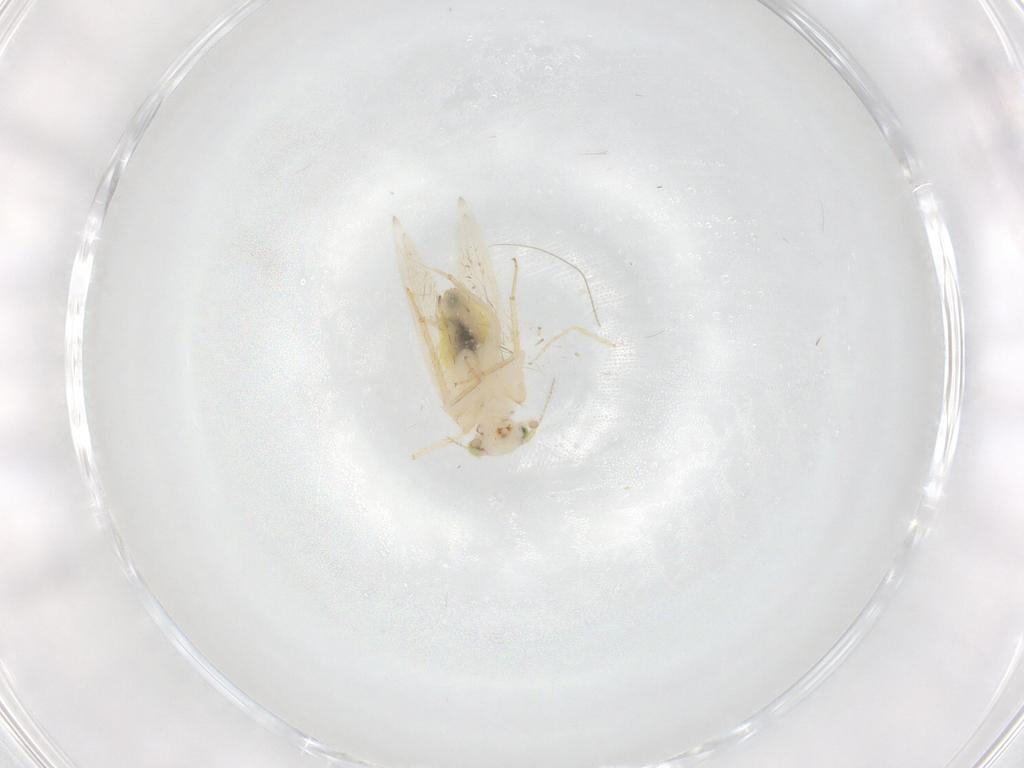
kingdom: Animalia
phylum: Arthropoda
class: Insecta
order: Psocodea
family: Lepidopsocidae
